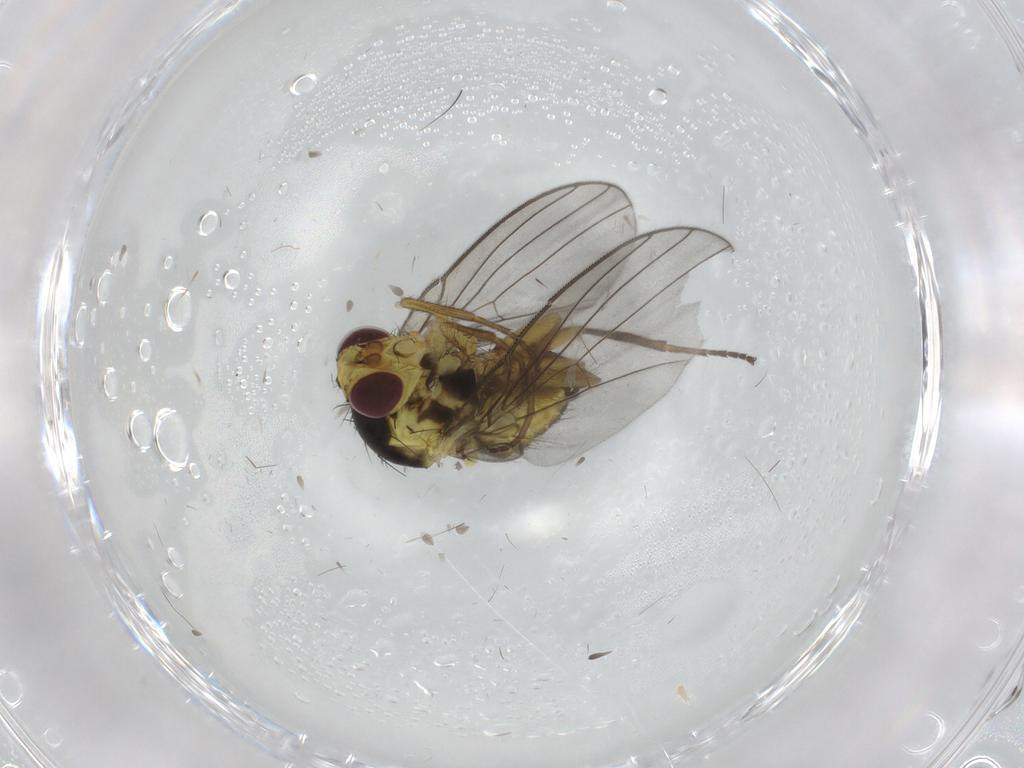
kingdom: Animalia
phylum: Arthropoda
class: Insecta
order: Diptera
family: Agromyzidae
